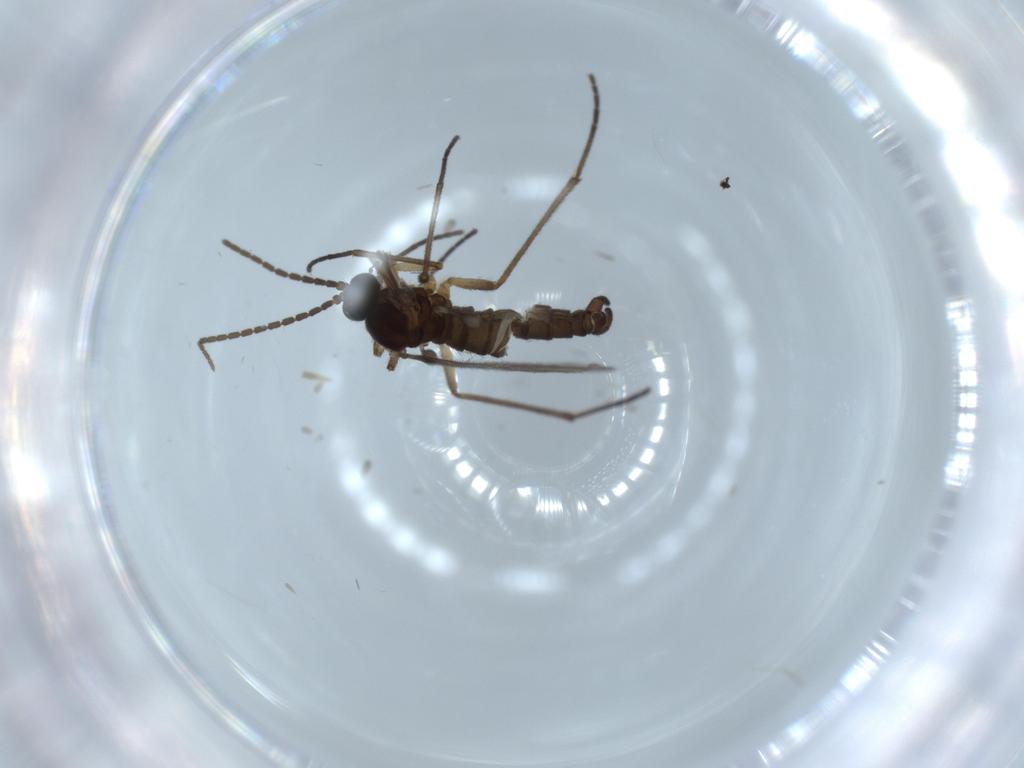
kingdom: Animalia
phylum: Arthropoda
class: Insecta
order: Diptera
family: Sciaridae
